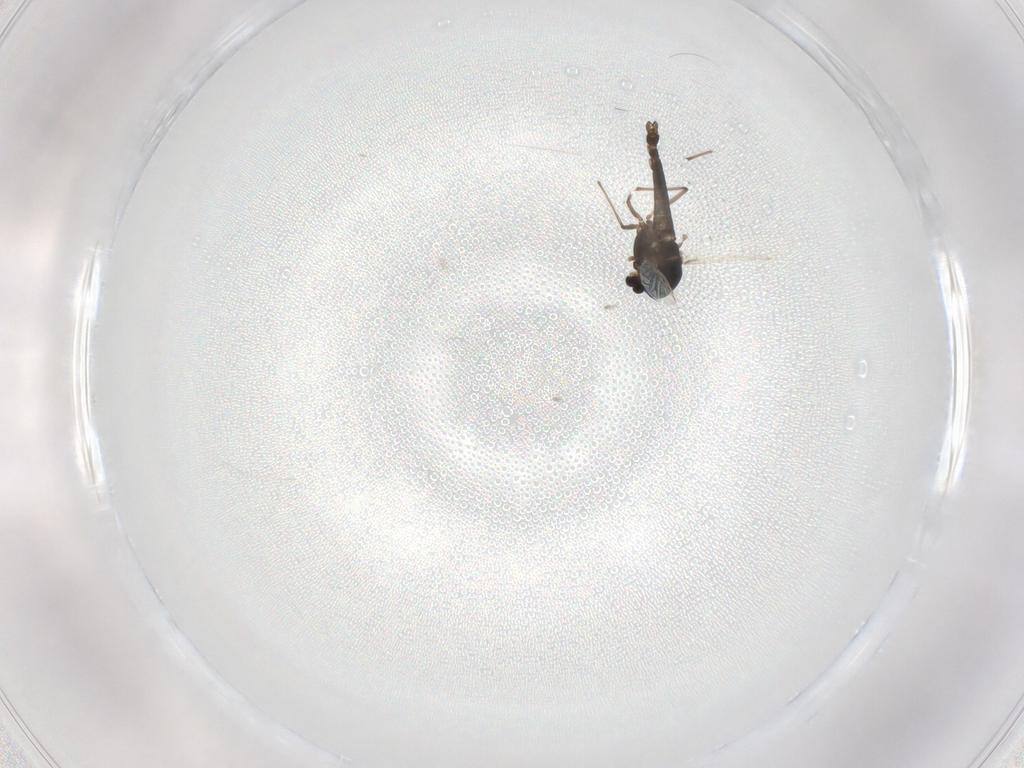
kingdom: Animalia
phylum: Arthropoda
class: Insecta
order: Diptera
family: Chironomidae
